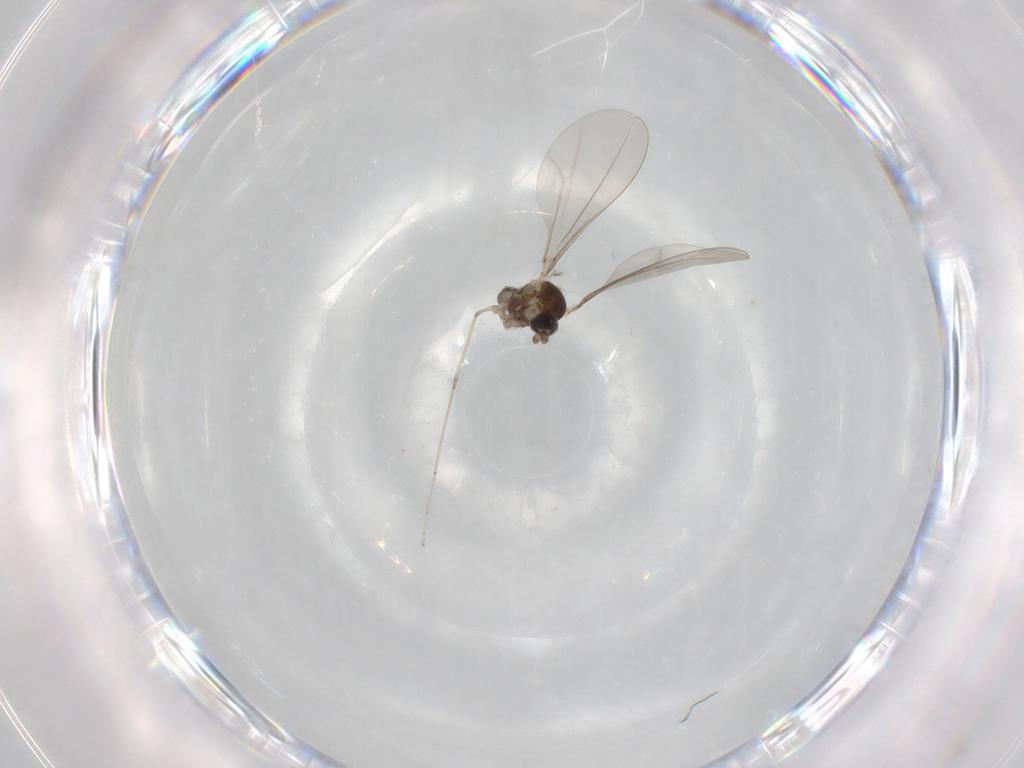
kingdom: Animalia
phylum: Arthropoda
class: Insecta
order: Diptera
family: Cecidomyiidae
